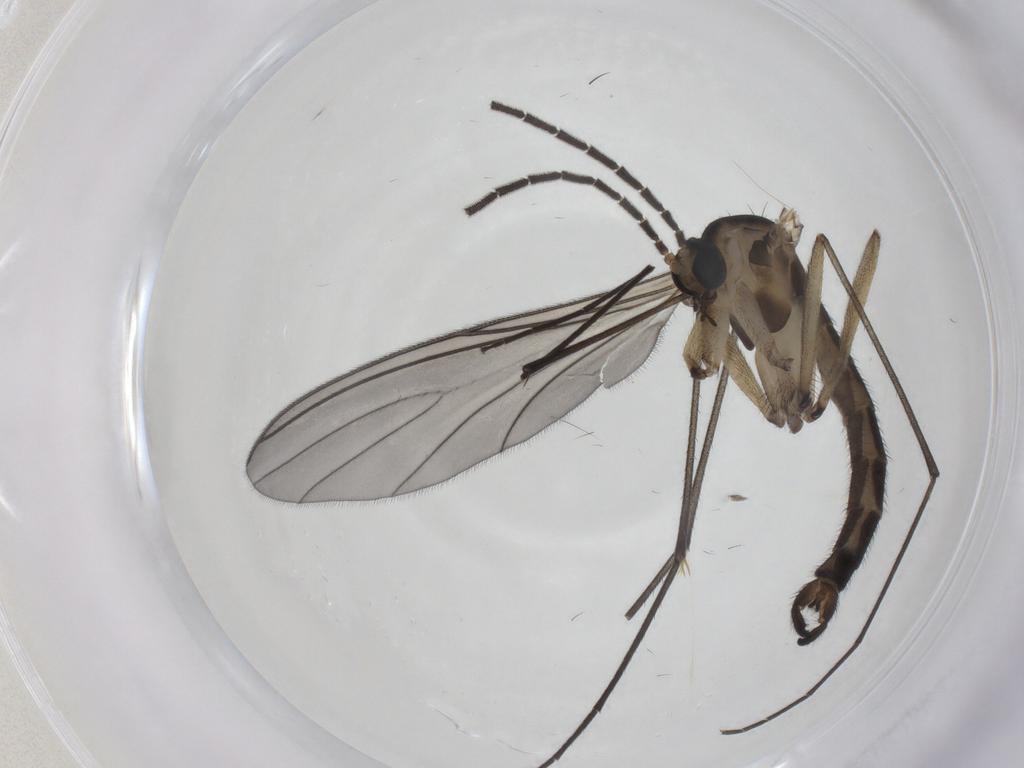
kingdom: Animalia
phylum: Arthropoda
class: Insecta
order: Diptera
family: Sciaridae
